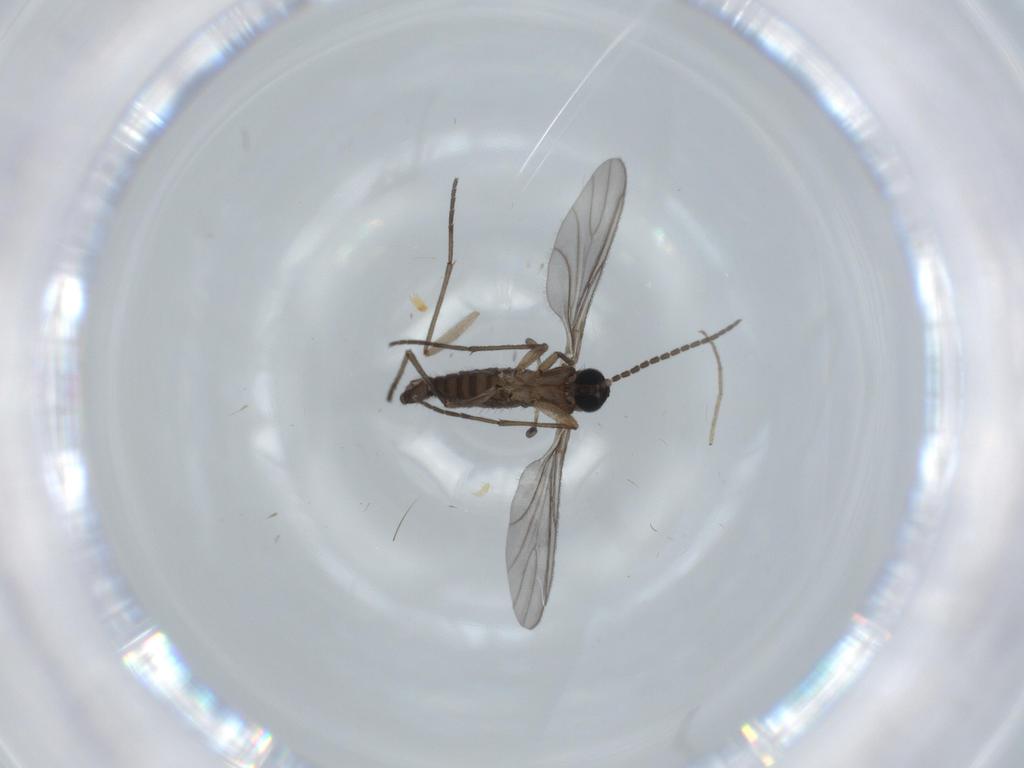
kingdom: Animalia
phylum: Arthropoda
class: Insecta
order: Diptera
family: Sciaridae
